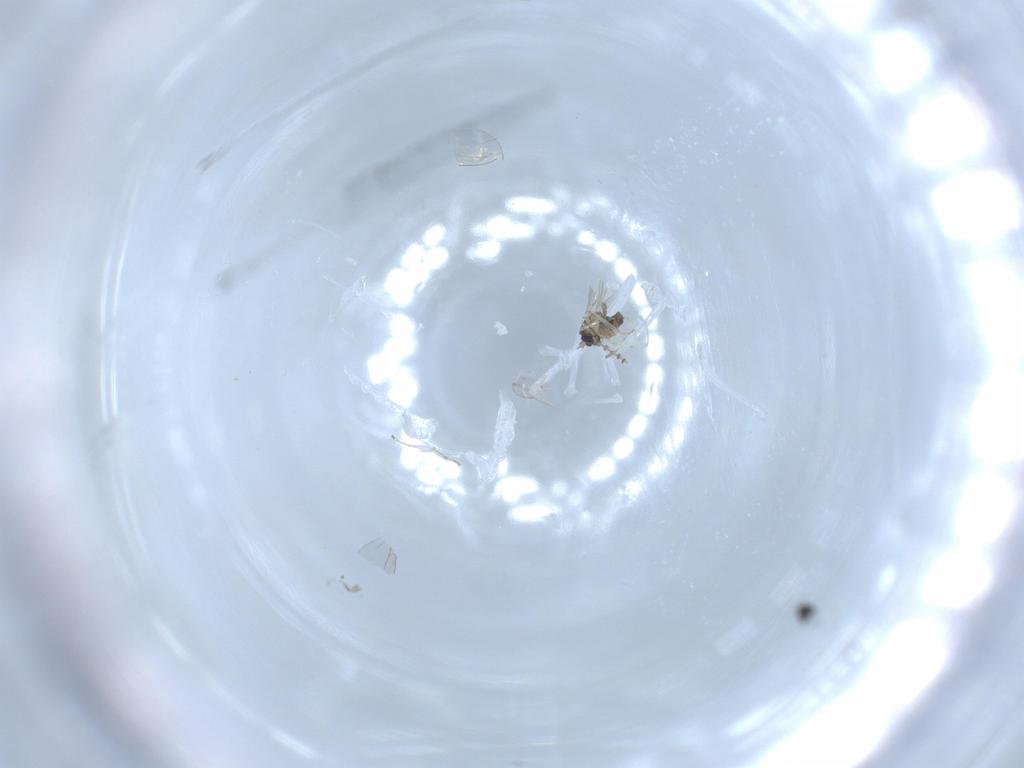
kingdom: Animalia
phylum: Arthropoda
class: Insecta
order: Diptera
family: Cecidomyiidae
